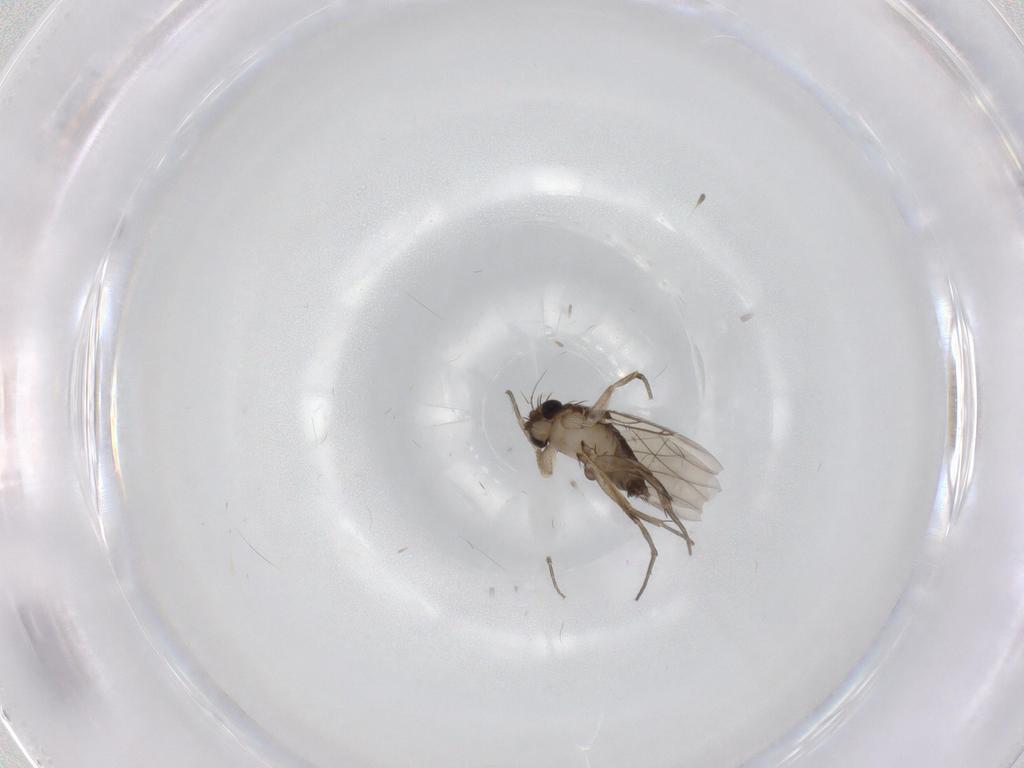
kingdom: Animalia
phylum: Arthropoda
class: Insecta
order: Diptera
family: Phoridae
